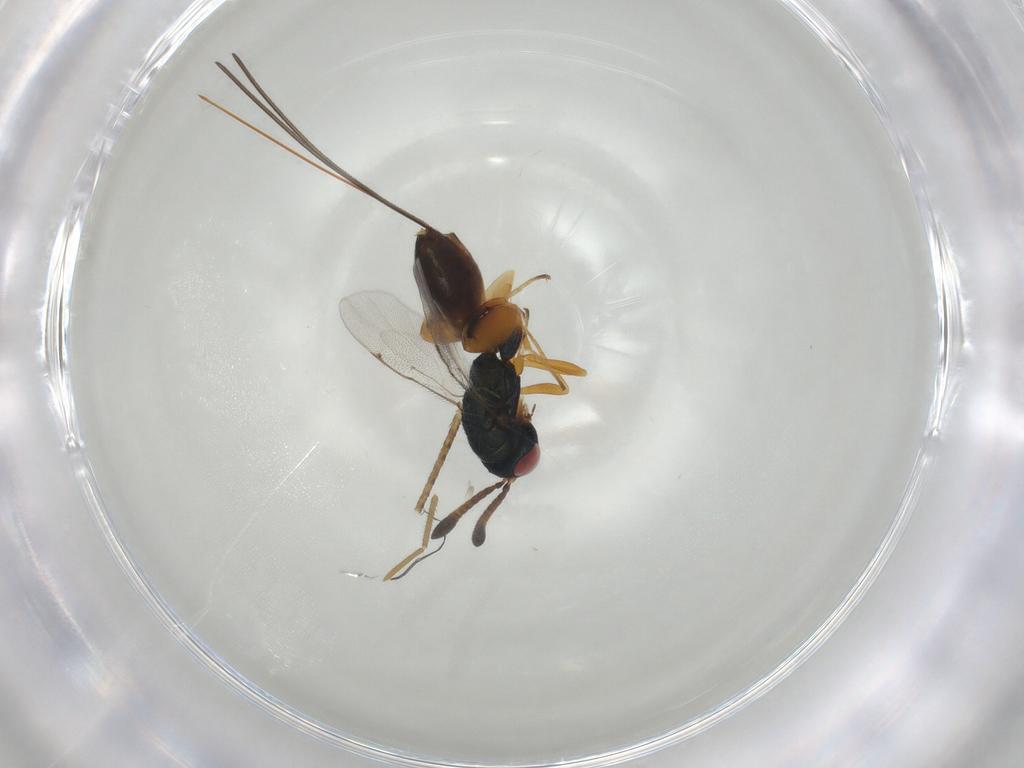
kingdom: Animalia
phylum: Arthropoda
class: Insecta
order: Hymenoptera
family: Torymidae
